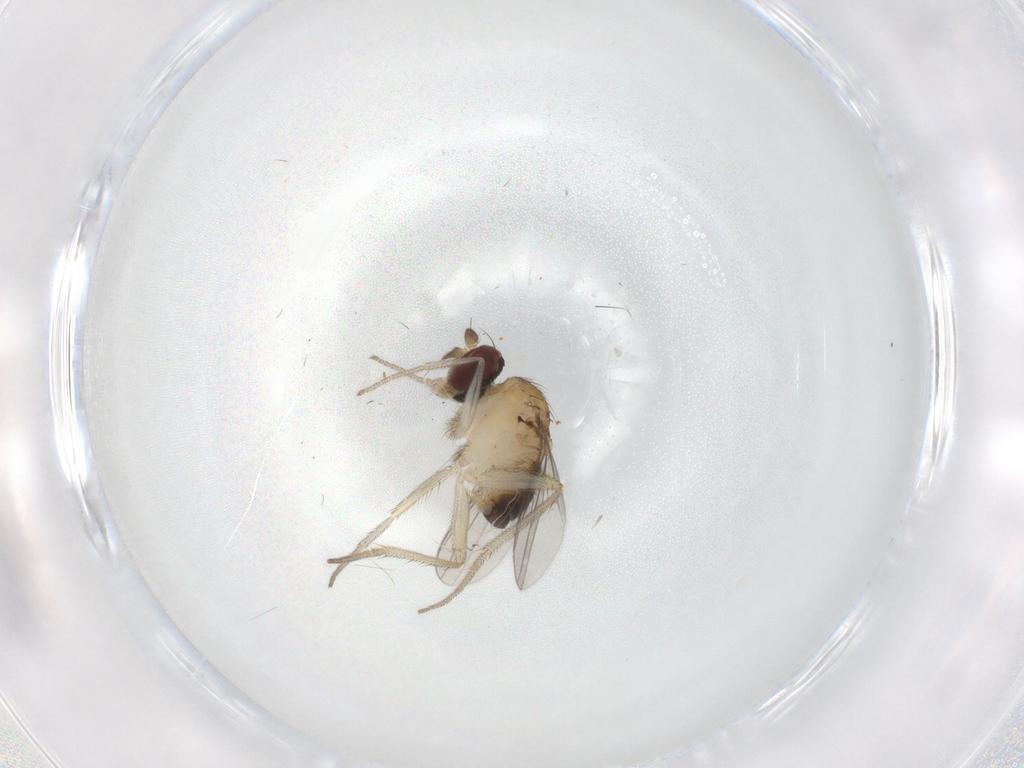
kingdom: Animalia
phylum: Arthropoda
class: Insecta
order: Diptera
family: Dolichopodidae
